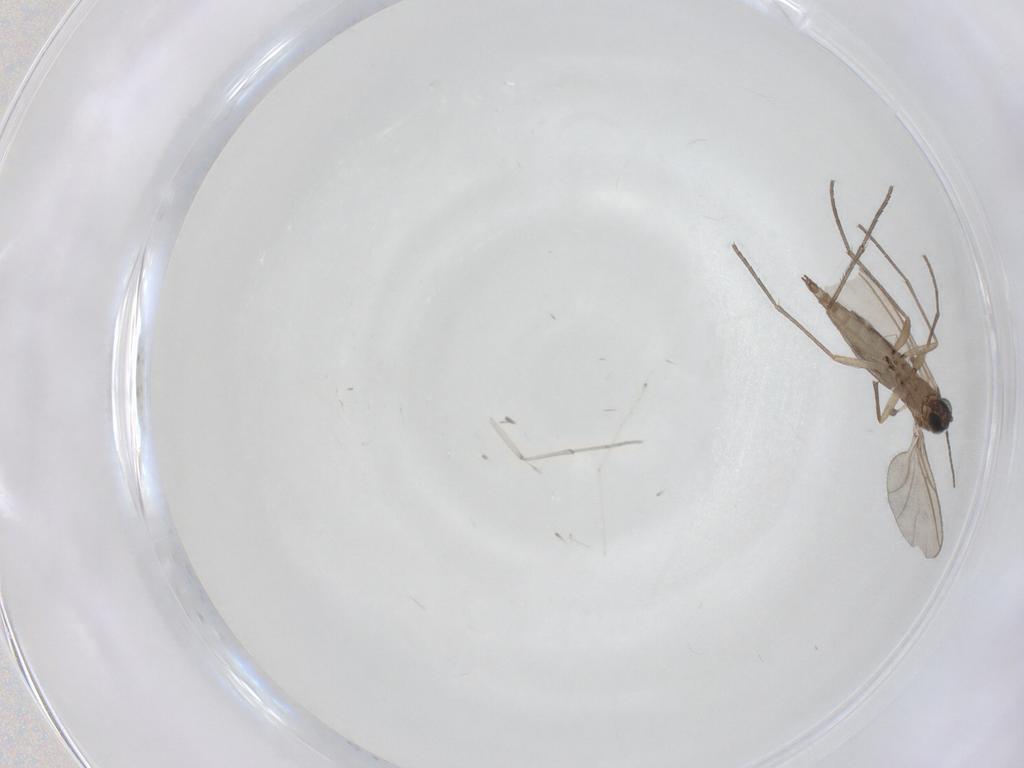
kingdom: Animalia
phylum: Arthropoda
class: Insecta
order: Diptera
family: Sciaridae
